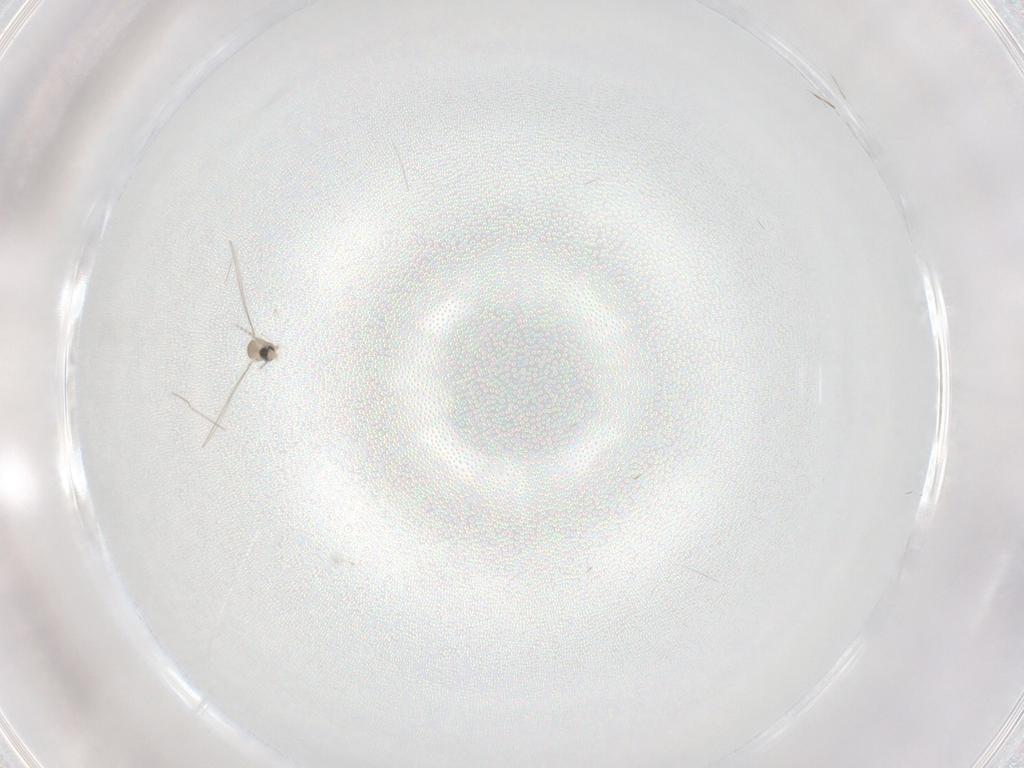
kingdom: Animalia
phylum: Arthropoda
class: Insecta
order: Diptera
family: Cecidomyiidae
